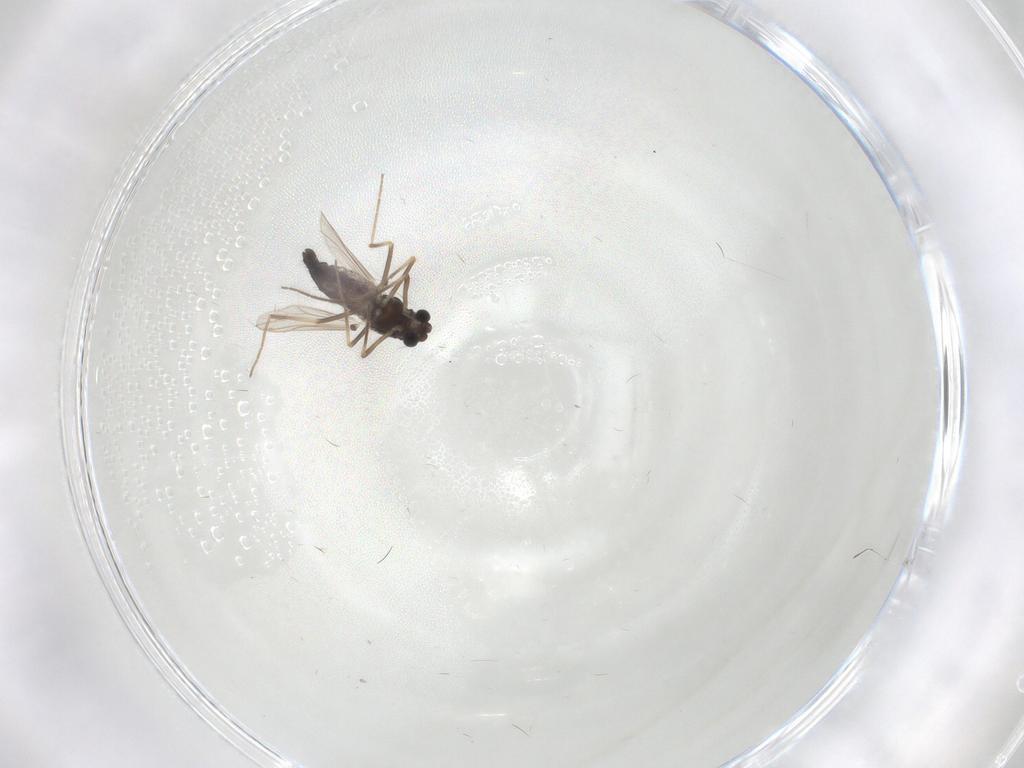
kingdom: Animalia
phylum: Arthropoda
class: Insecta
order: Diptera
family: Chironomidae
